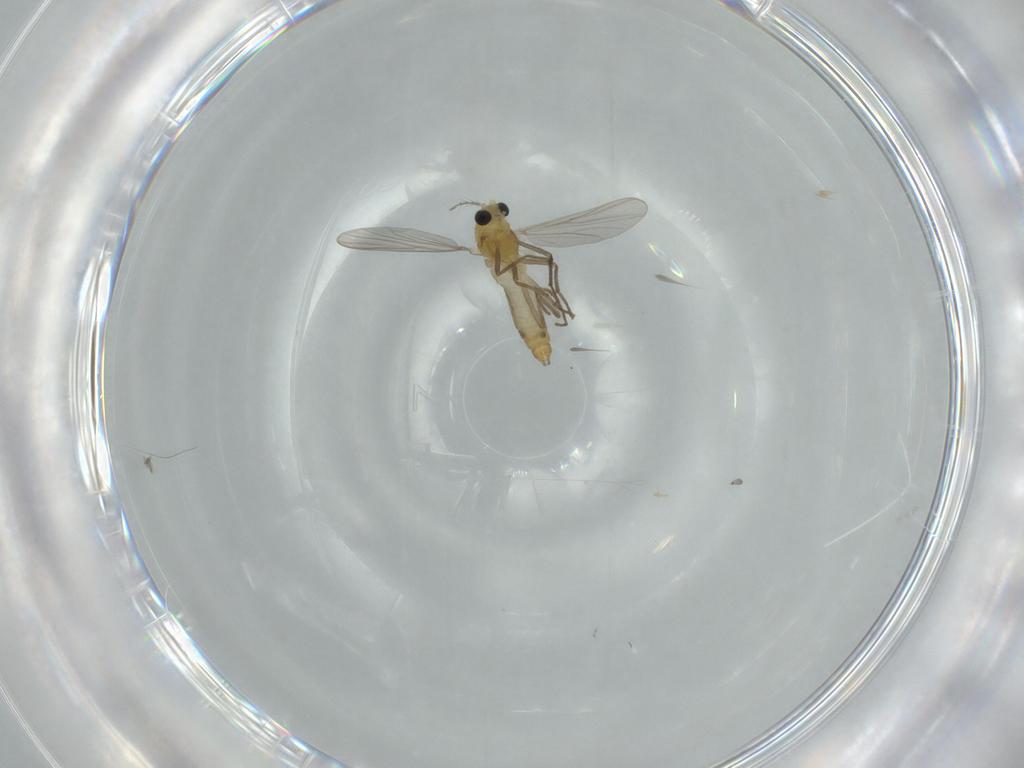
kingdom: Animalia
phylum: Arthropoda
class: Insecta
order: Diptera
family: Chironomidae
